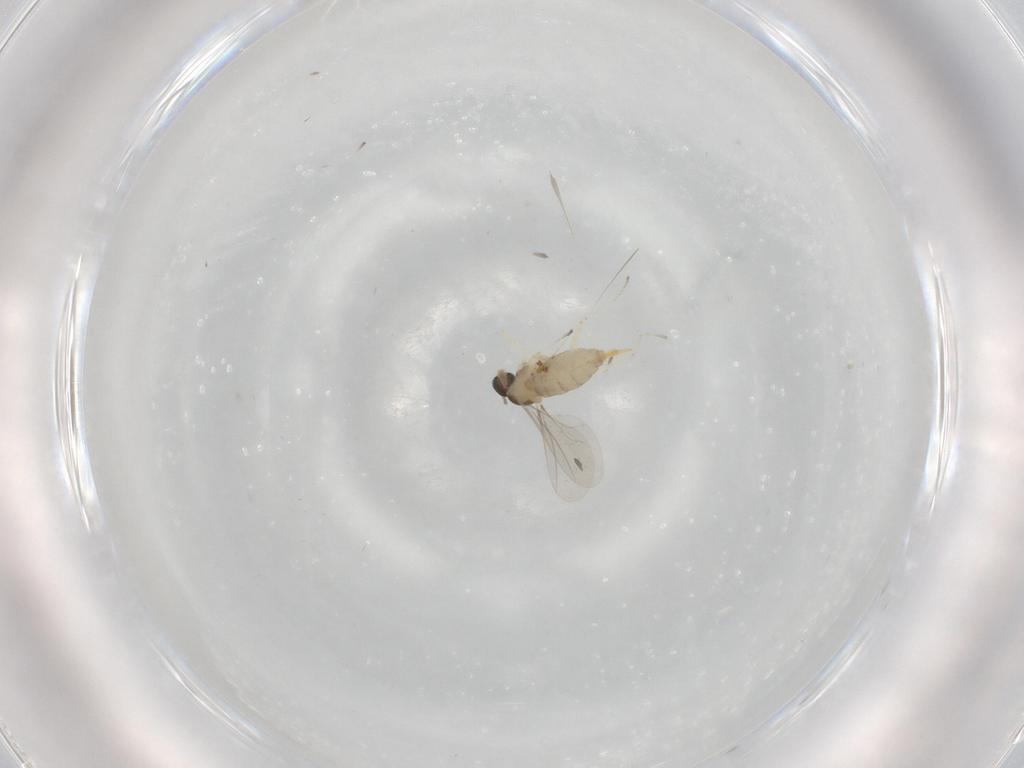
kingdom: Animalia
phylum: Arthropoda
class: Insecta
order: Diptera
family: Cecidomyiidae
